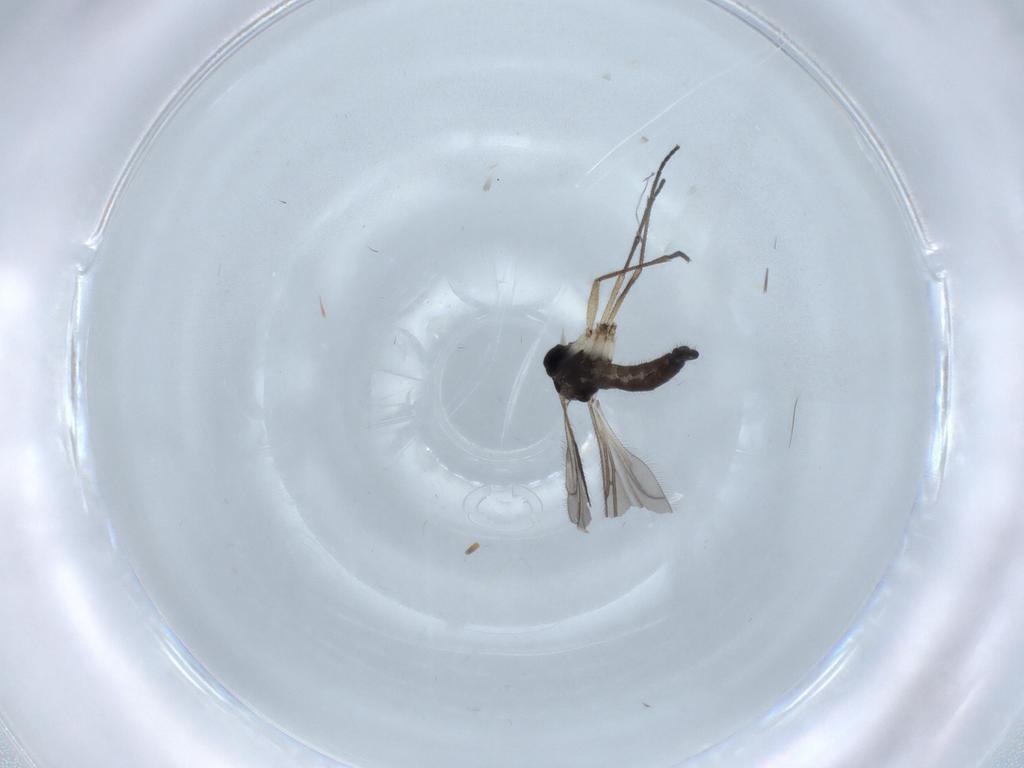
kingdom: Animalia
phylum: Arthropoda
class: Insecta
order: Diptera
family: Sciaridae
